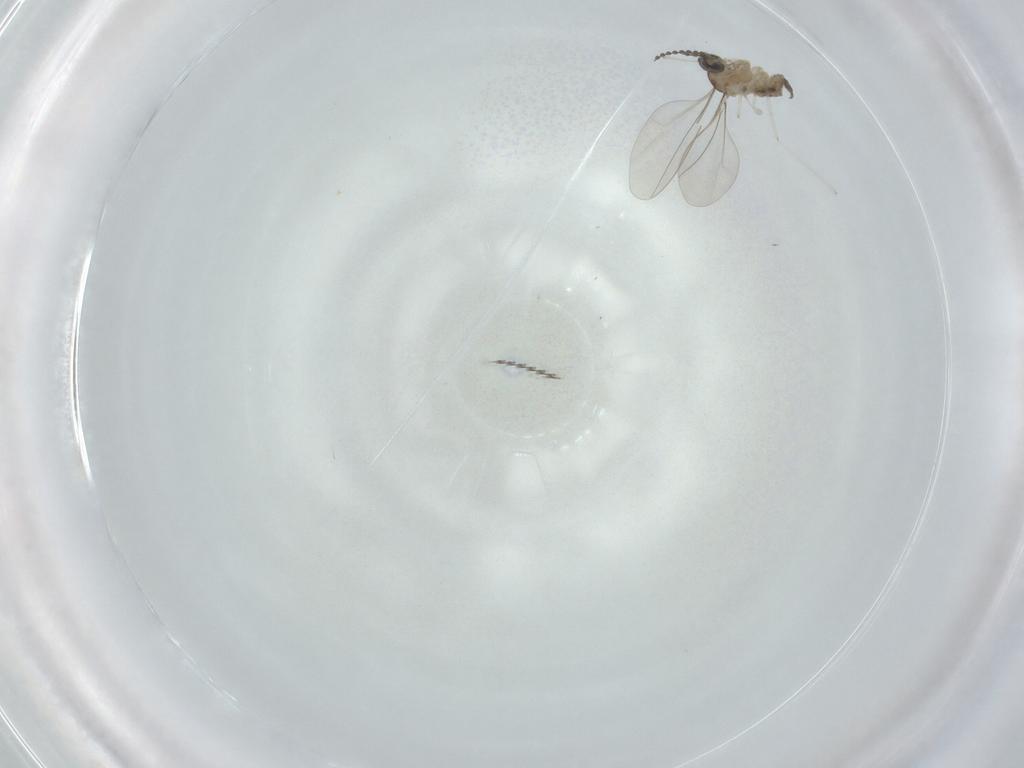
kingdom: Animalia
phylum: Arthropoda
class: Insecta
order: Diptera
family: Cecidomyiidae
